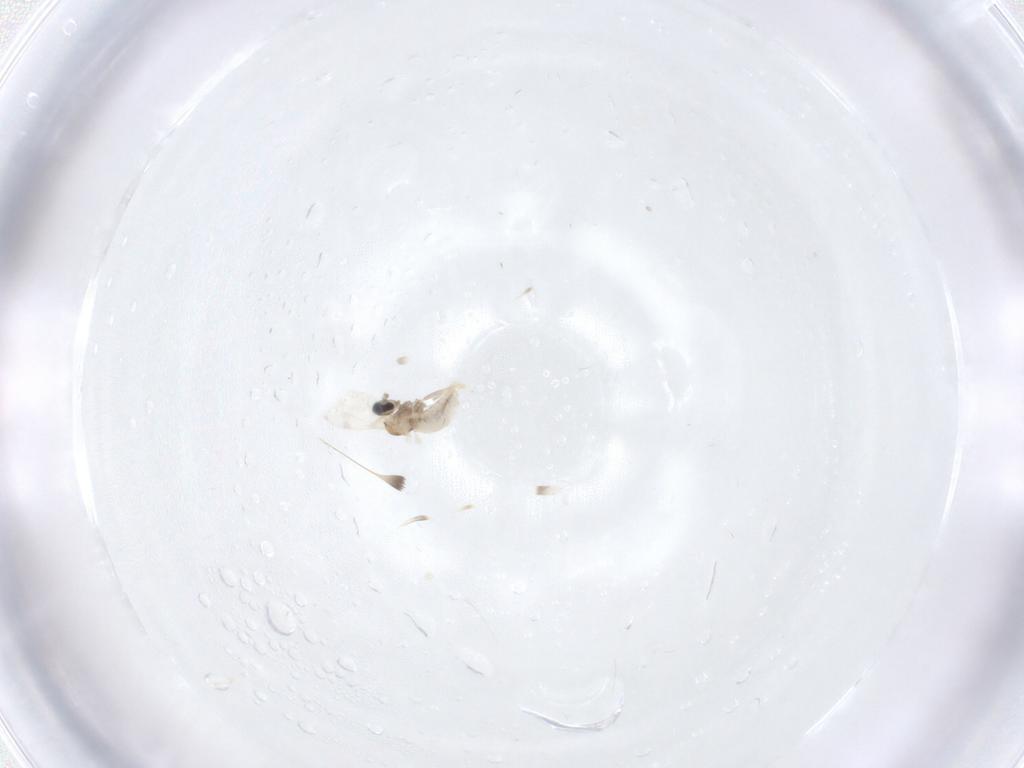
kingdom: Animalia
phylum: Arthropoda
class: Insecta
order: Diptera
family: Cecidomyiidae
